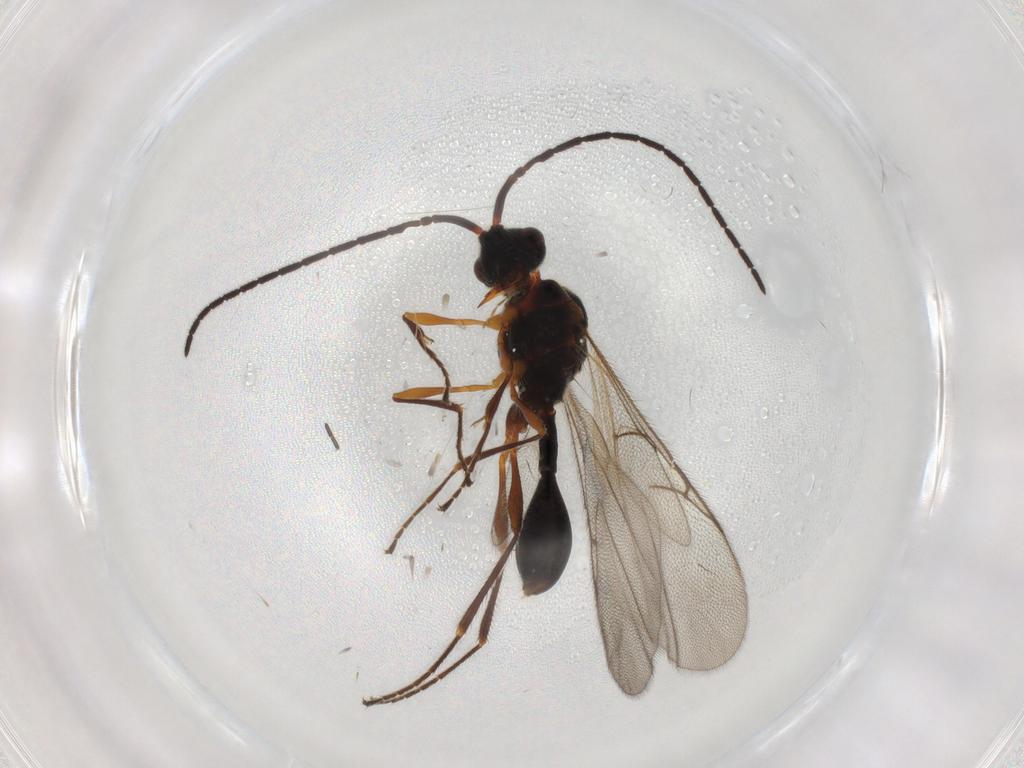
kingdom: Animalia
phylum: Arthropoda
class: Insecta
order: Hymenoptera
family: Diapriidae
